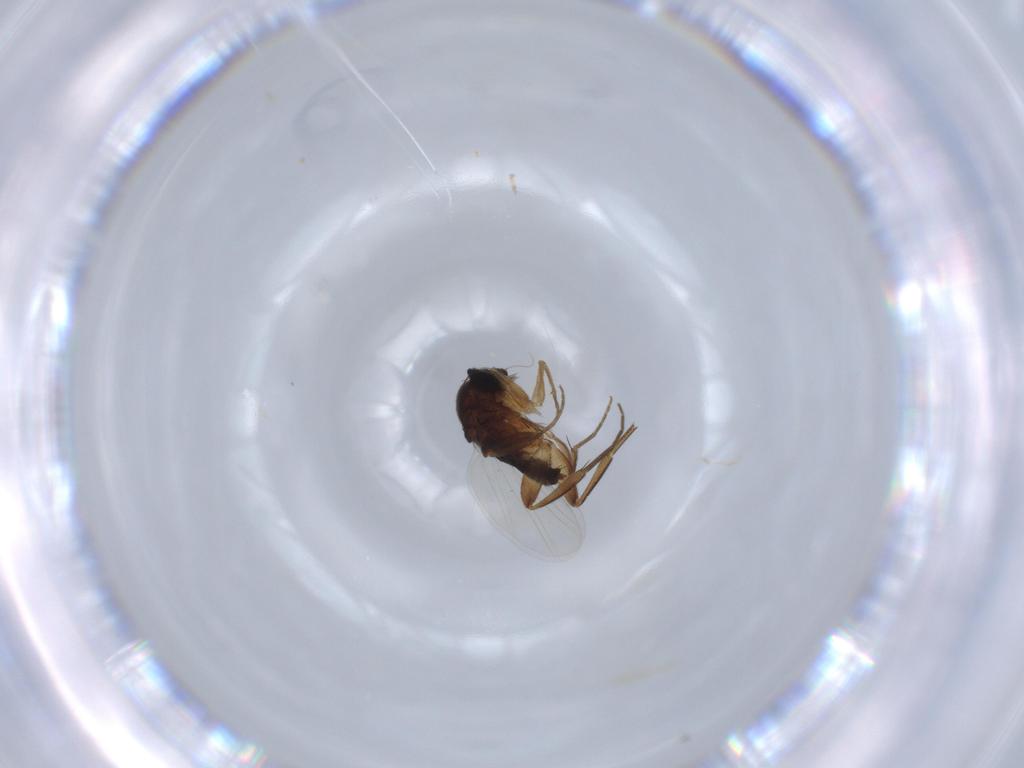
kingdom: Animalia
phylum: Arthropoda
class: Insecta
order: Diptera
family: Phoridae
